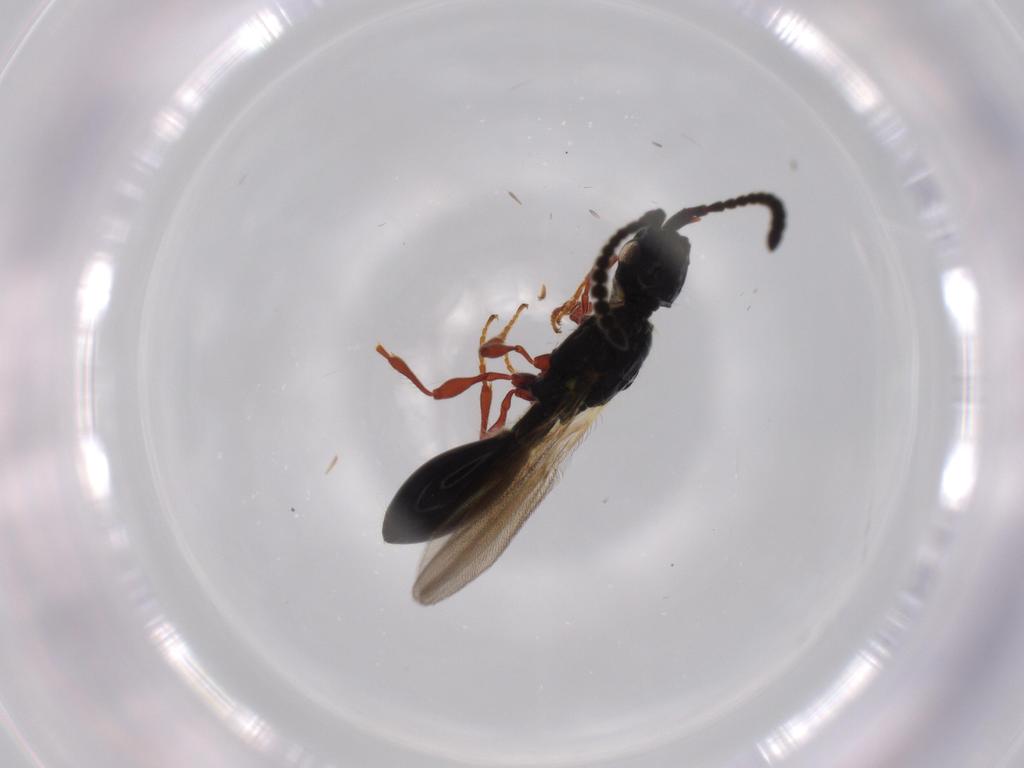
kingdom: Animalia
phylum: Arthropoda
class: Insecta
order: Hymenoptera
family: Diapriidae
